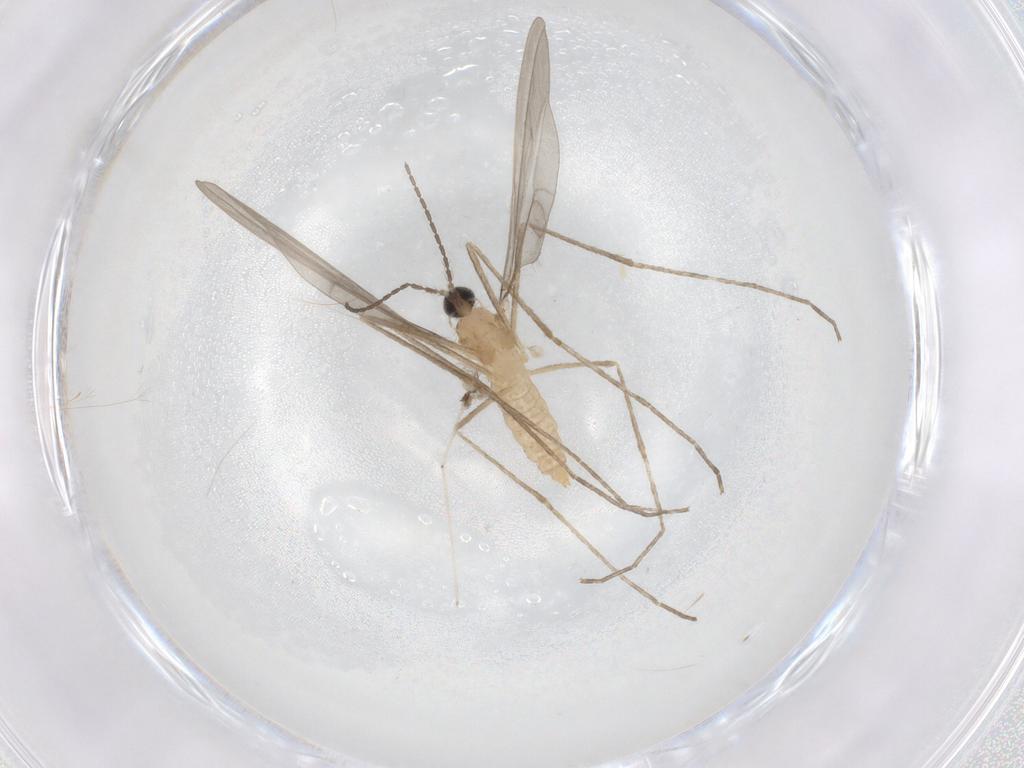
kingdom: Animalia
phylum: Arthropoda
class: Insecta
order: Diptera
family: Cecidomyiidae
